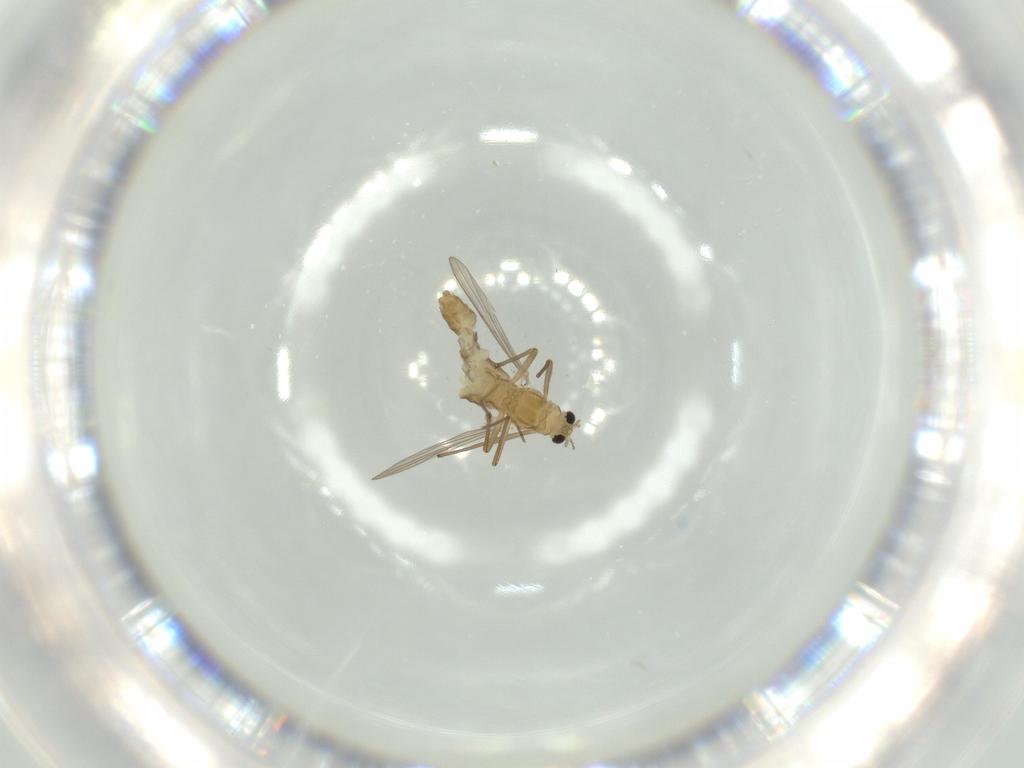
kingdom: Animalia
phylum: Arthropoda
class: Insecta
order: Diptera
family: Chironomidae
